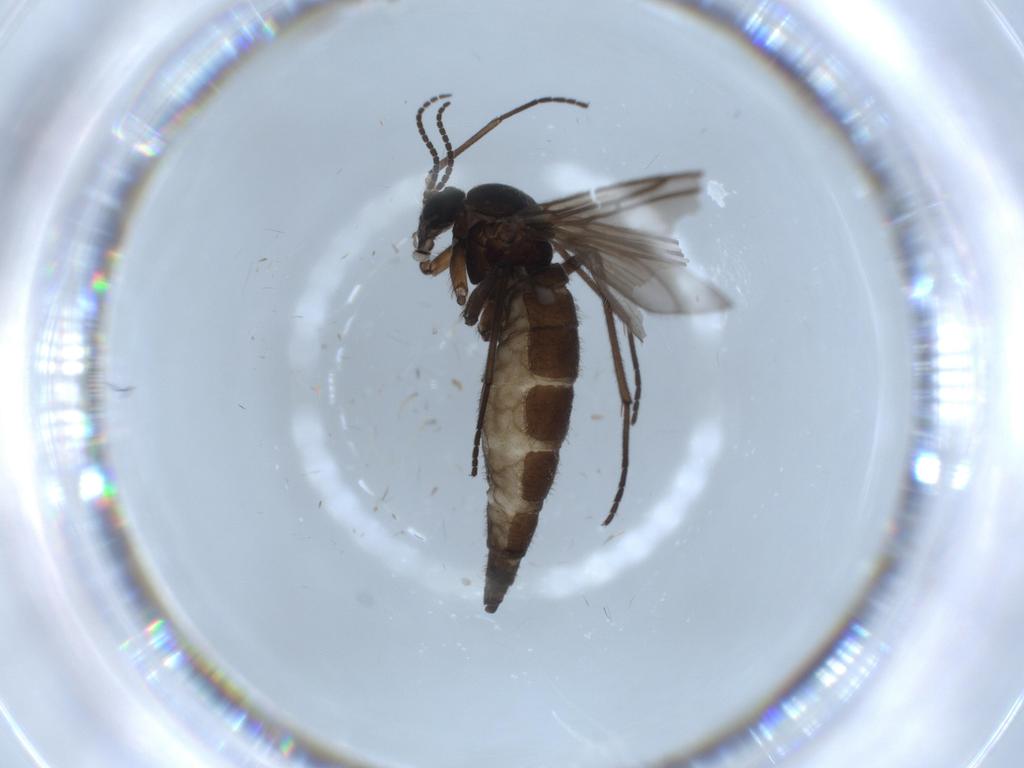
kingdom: Animalia
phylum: Arthropoda
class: Insecta
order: Diptera
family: Sciaridae
